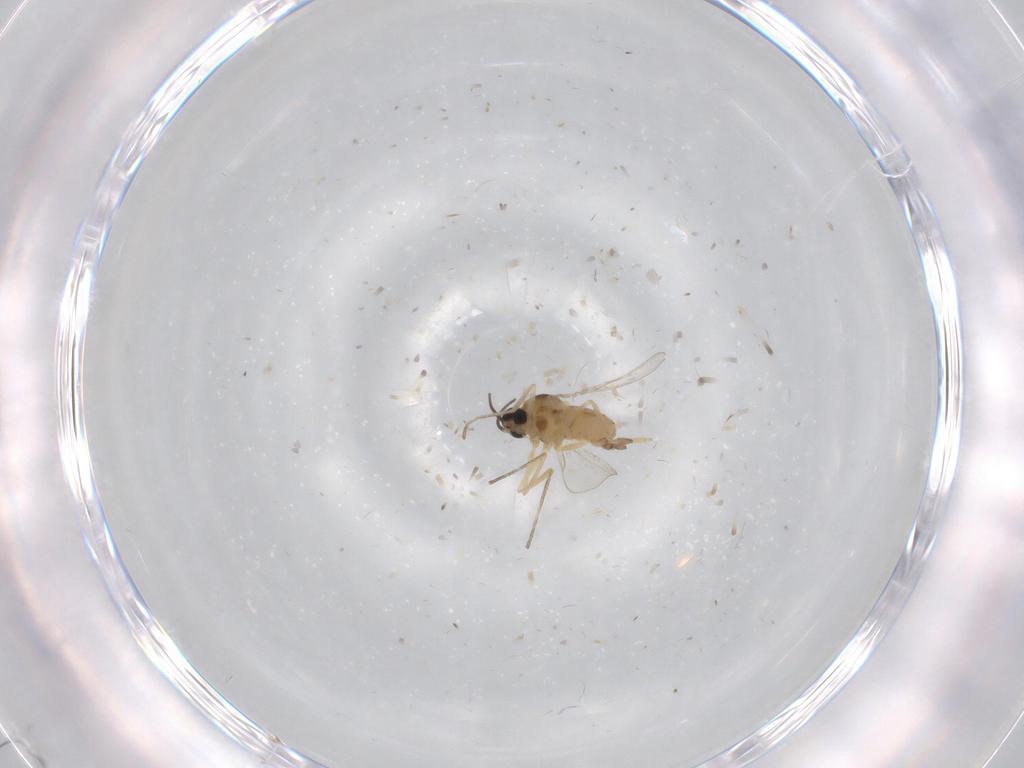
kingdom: Animalia
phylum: Arthropoda
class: Insecta
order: Diptera
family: Cecidomyiidae
